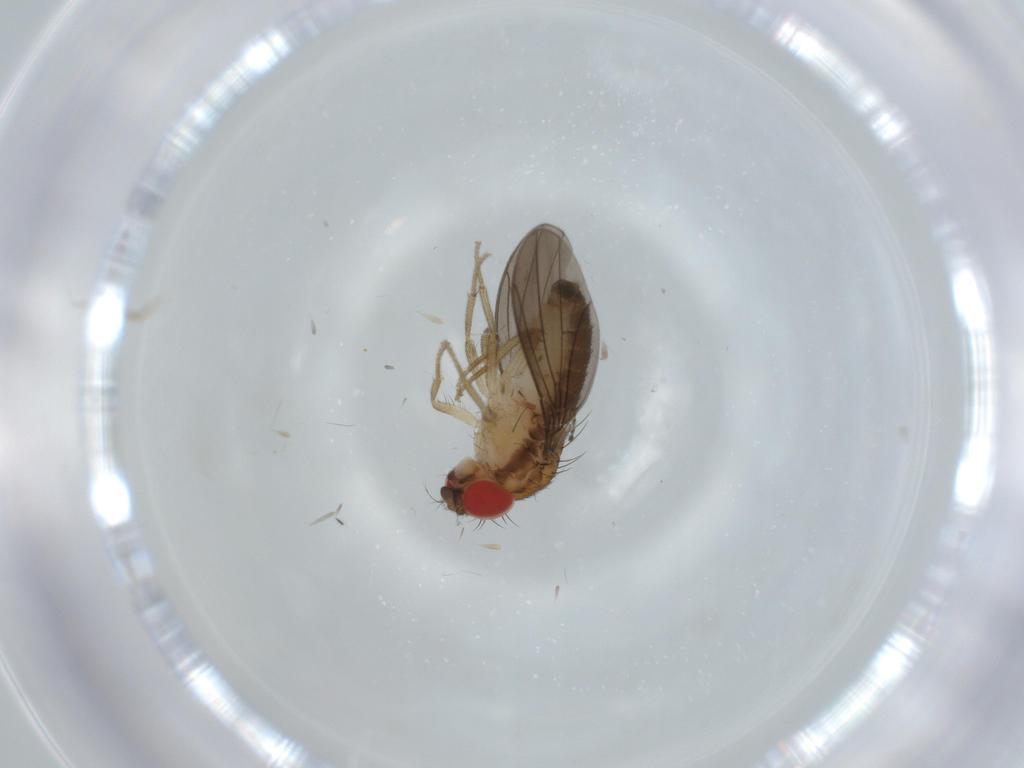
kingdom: Animalia
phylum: Arthropoda
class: Insecta
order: Diptera
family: Drosophilidae
